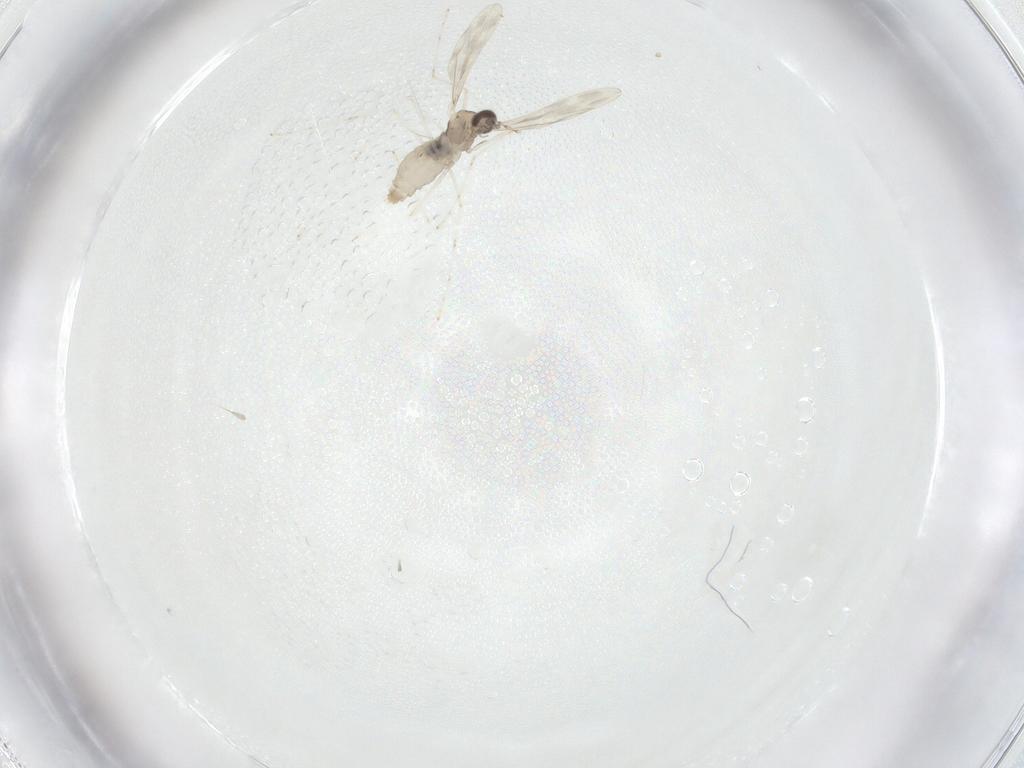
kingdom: Animalia
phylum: Arthropoda
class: Insecta
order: Diptera
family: Cecidomyiidae
